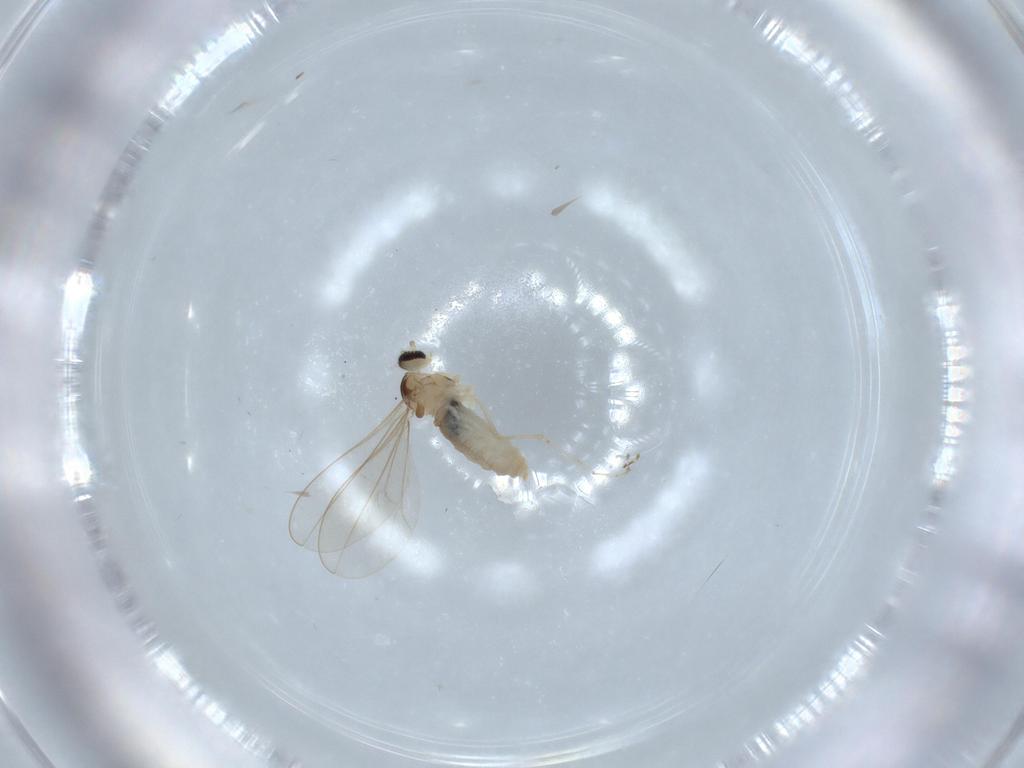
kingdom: Animalia
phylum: Arthropoda
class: Insecta
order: Diptera
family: Cecidomyiidae
